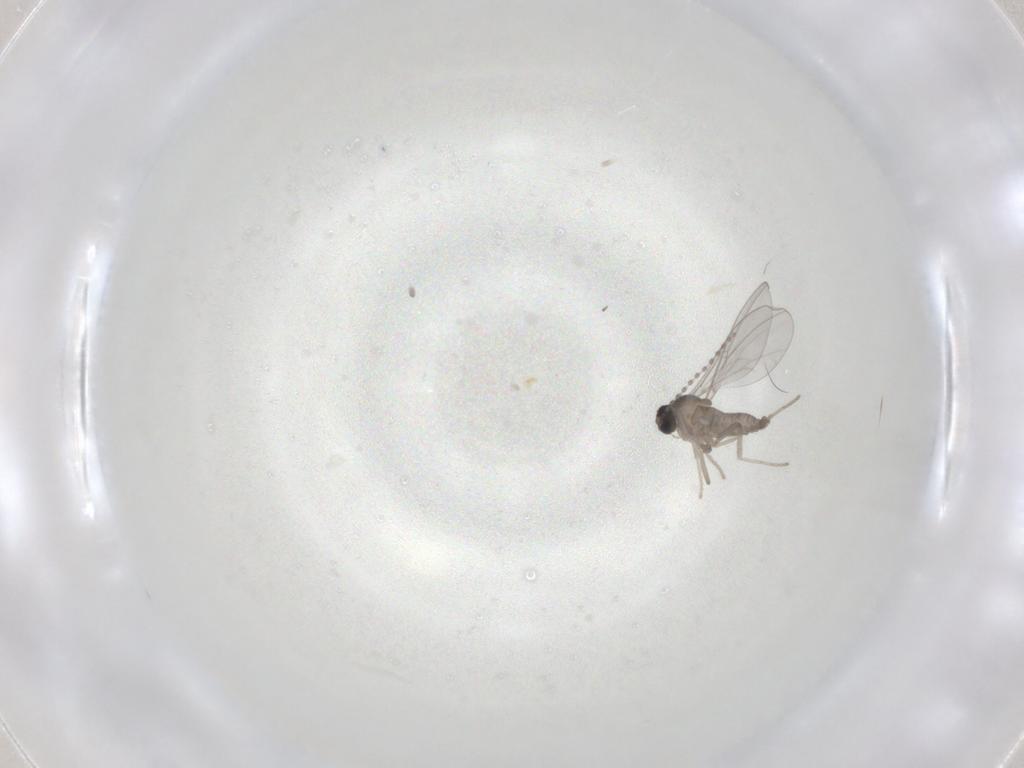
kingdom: Animalia
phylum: Arthropoda
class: Insecta
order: Diptera
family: Cecidomyiidae
